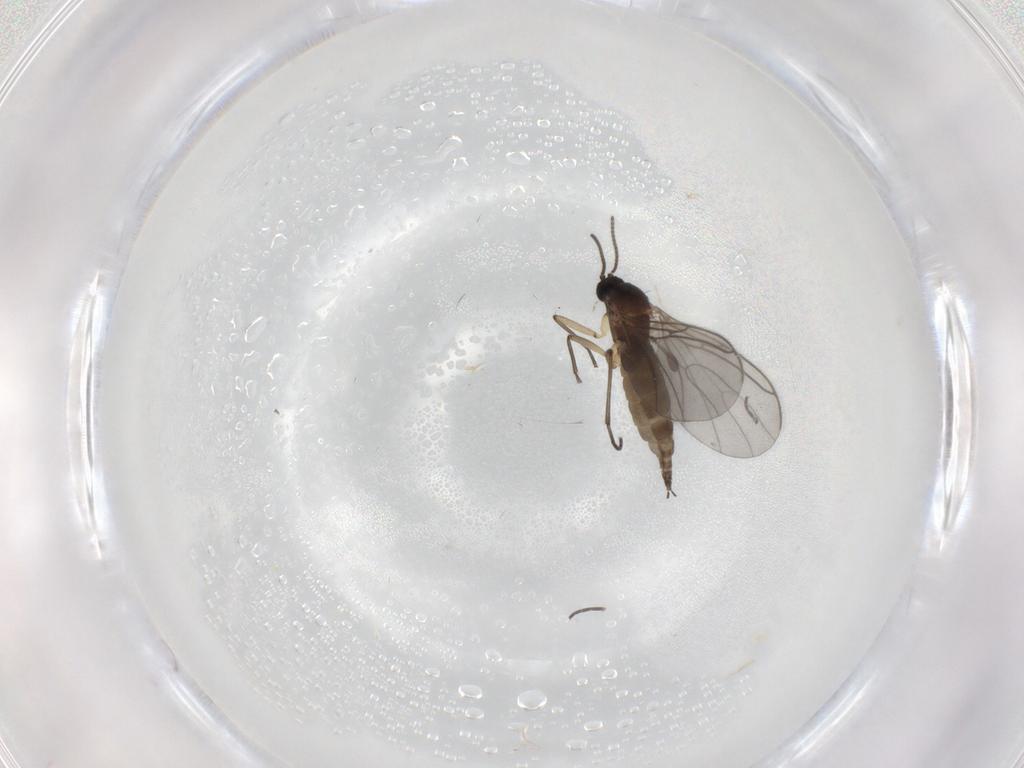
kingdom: Animalia
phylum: Arthropoda
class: Insecta
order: Diptera
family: Sciaridae
